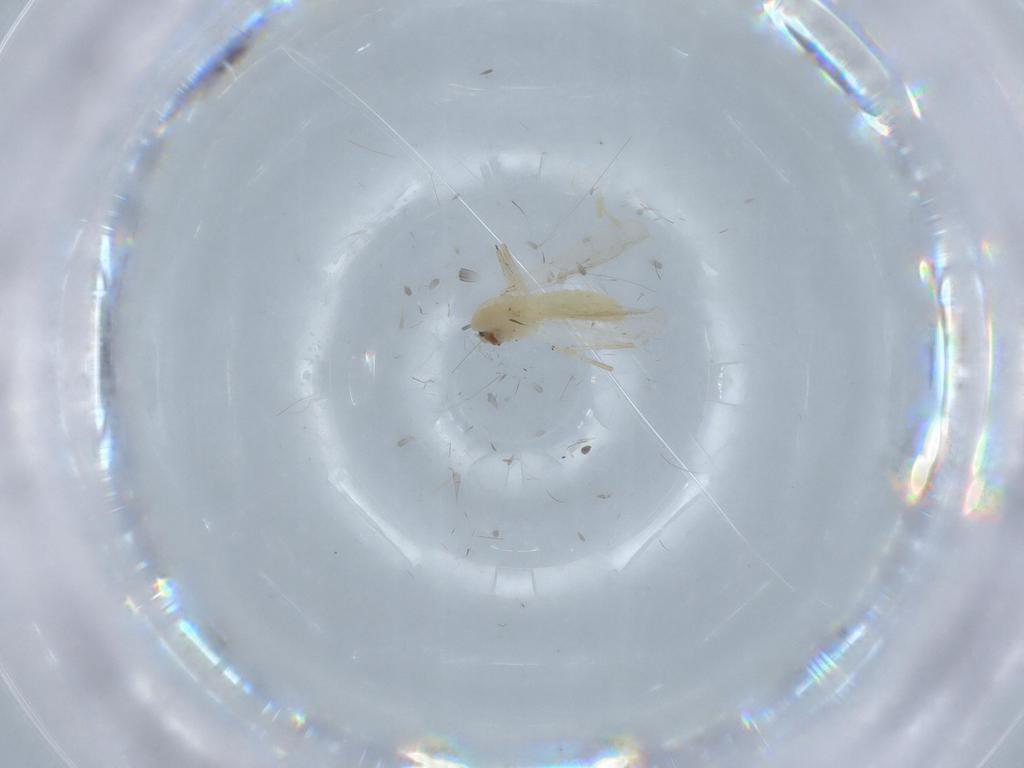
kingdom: Animalia
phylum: Arthropoda
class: Insecta
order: Diptera
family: Chironomidae
